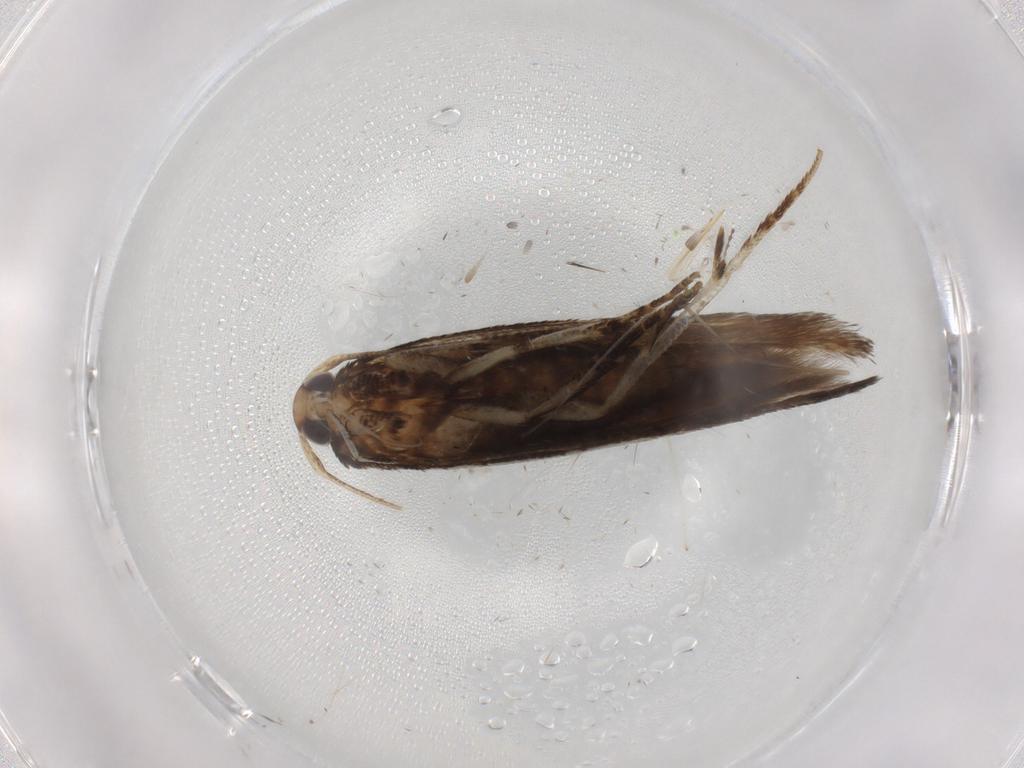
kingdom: Animalia
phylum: Arthropoda
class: Insecta
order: Lepidoptera
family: Cosmopterigidae
